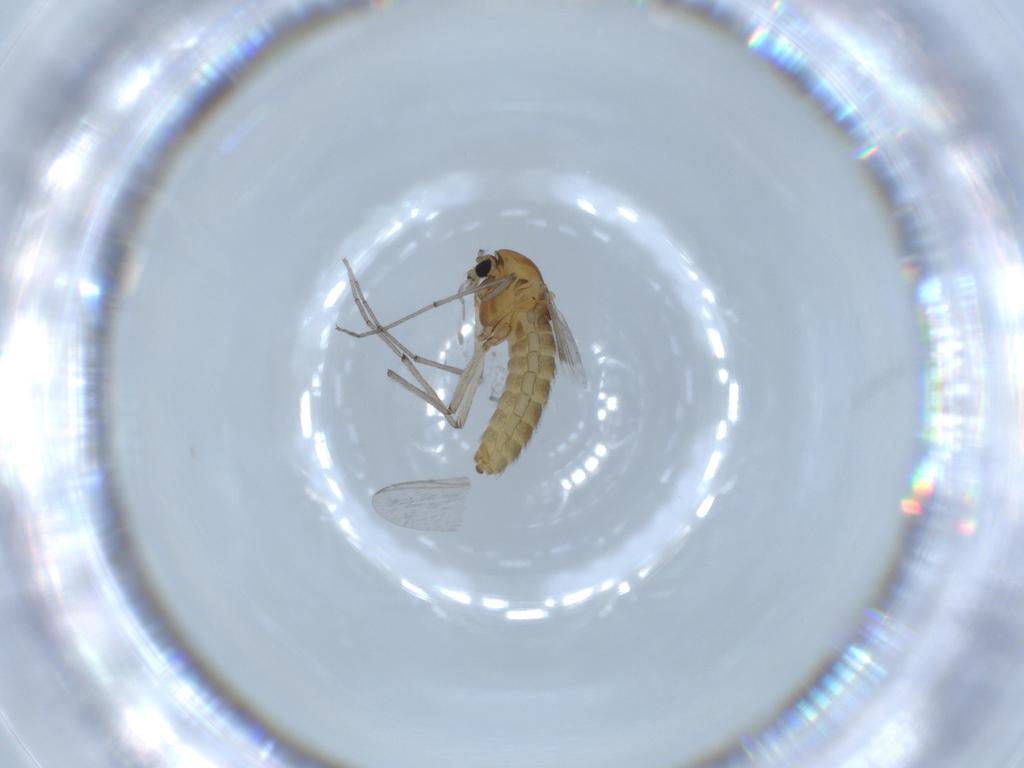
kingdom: Animalia
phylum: Arthropoda
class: Insecta
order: Diptera
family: Chironomidae
